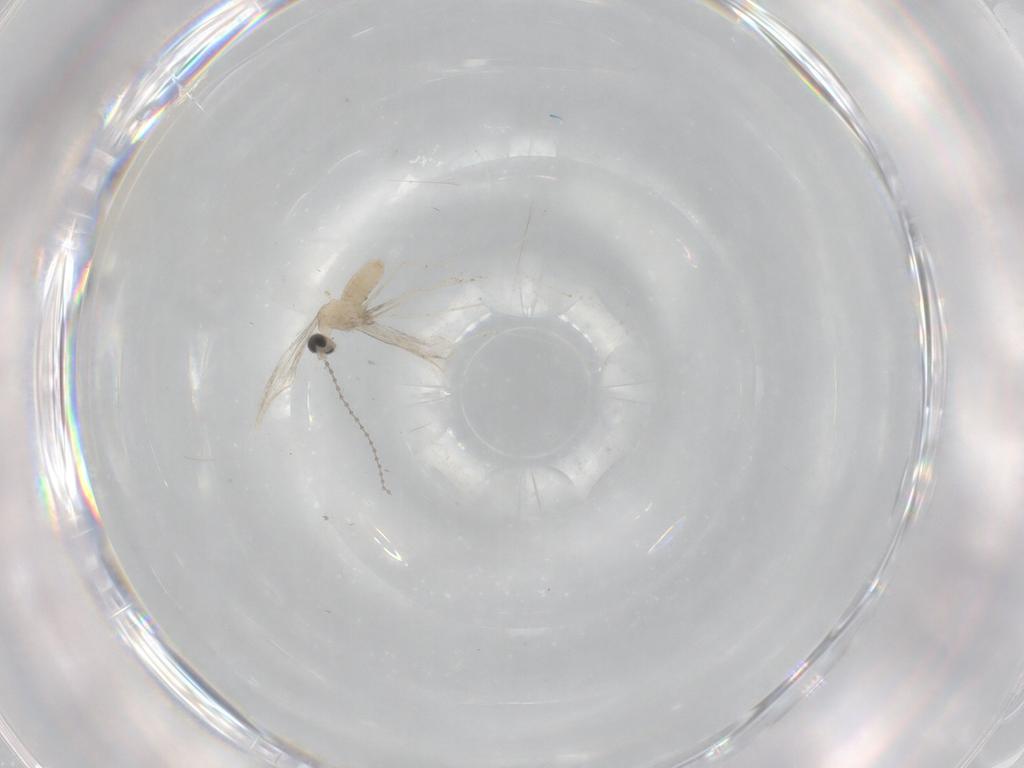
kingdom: Animalia
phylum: Arthropoda
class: Insecta
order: Diptera
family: Cecidomyiidae
